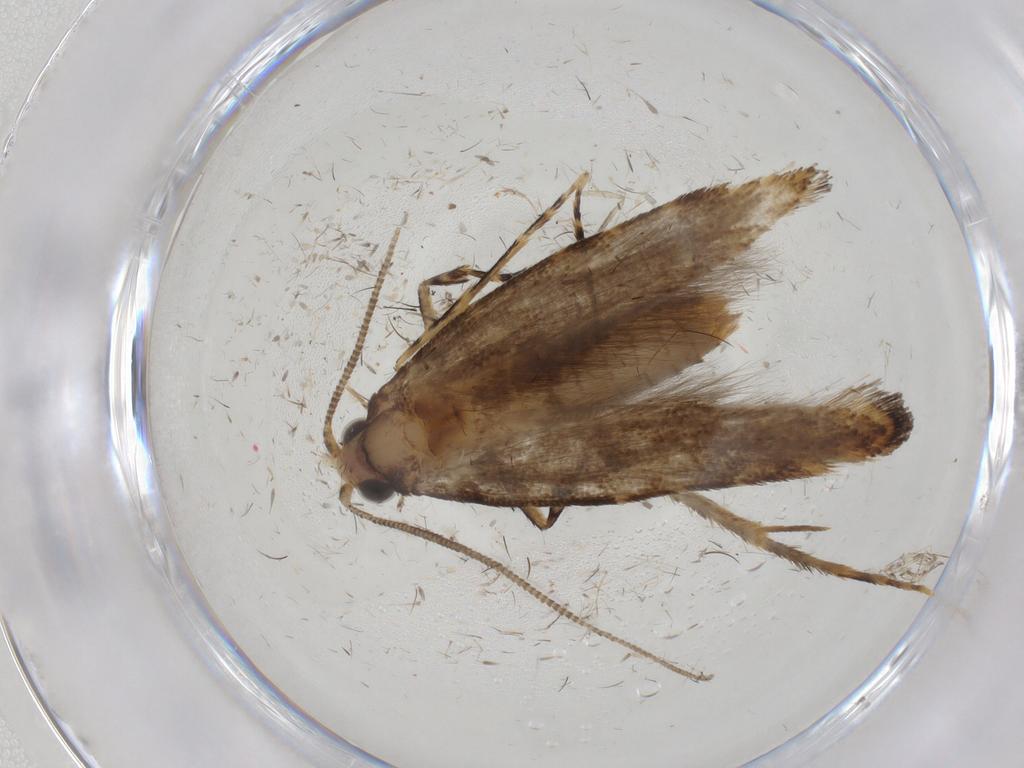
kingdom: Animalia
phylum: Arthropoda
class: Insecta
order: Lepidoptera
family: Tineidae
